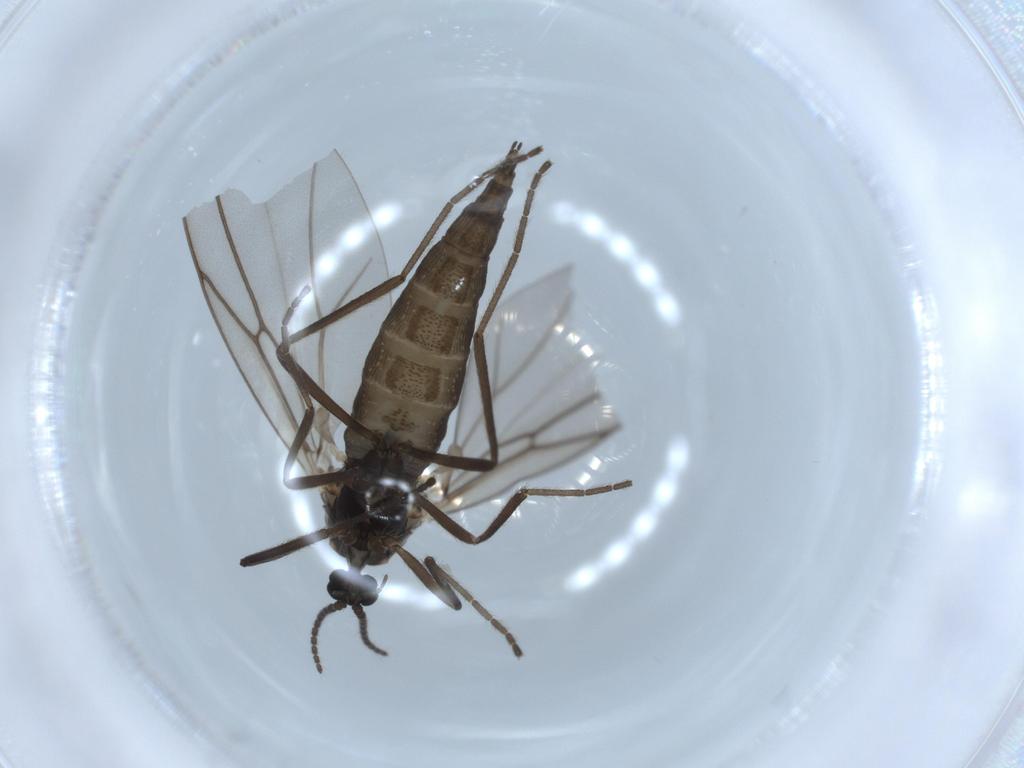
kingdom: Animalia
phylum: Arthropoda
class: Insecta
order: Diptera
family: Cecidomyiidae
